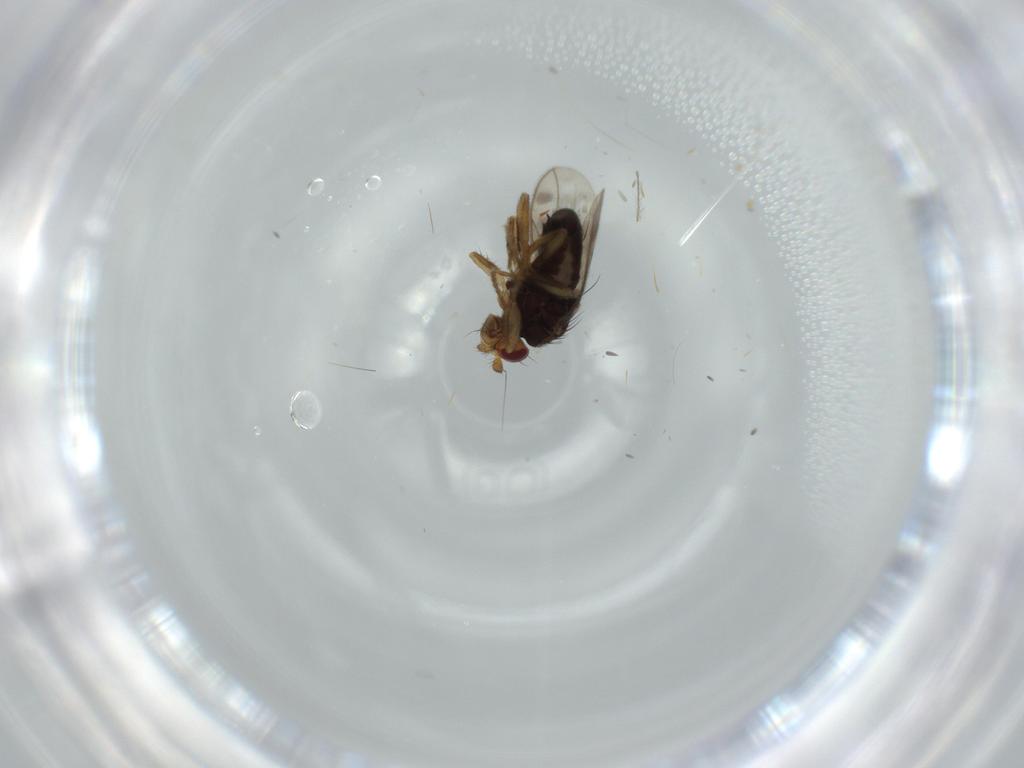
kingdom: Animalia
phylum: Arthropoda
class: Insecta
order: Diptera
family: Sphaeroceridae
